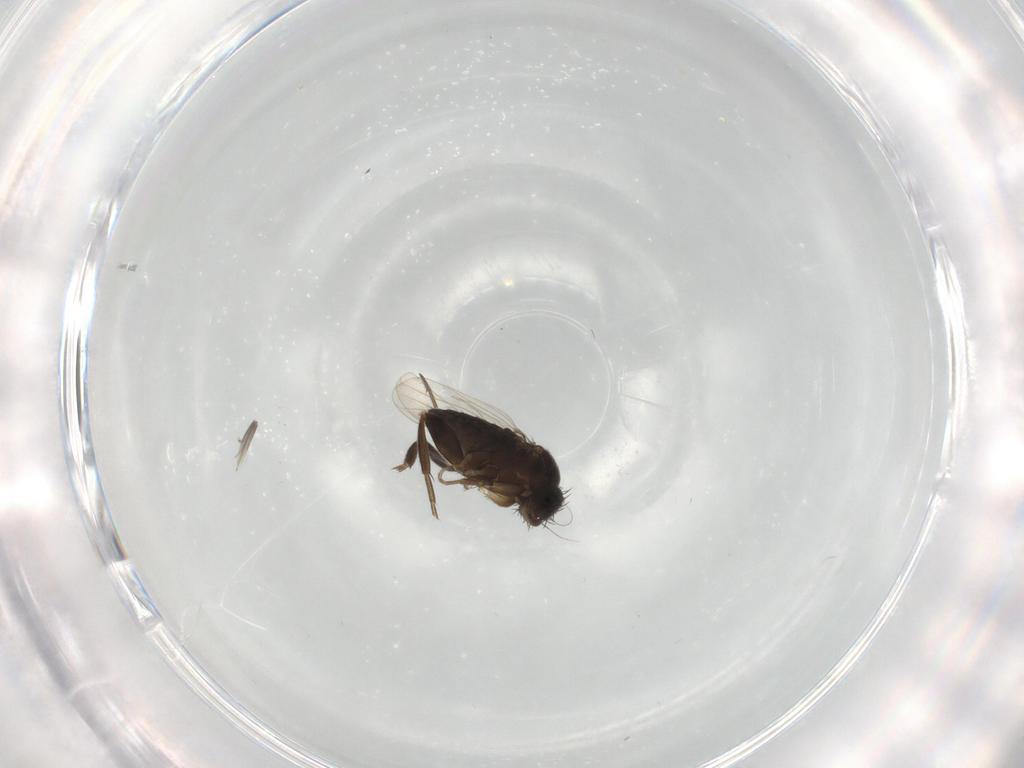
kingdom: Animalia
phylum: Arthropoda
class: Insecta
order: Diptera
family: Phoridae
